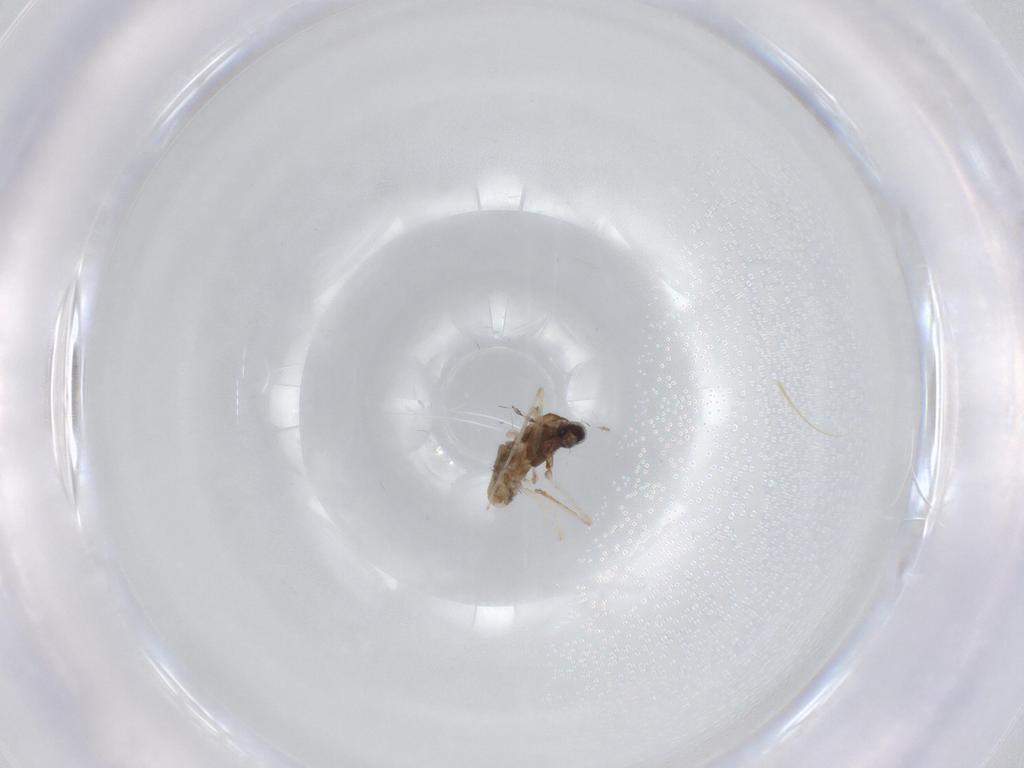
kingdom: Animalia
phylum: Arthropoda
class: Insecta
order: Diptera
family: Cecidomyiidae
